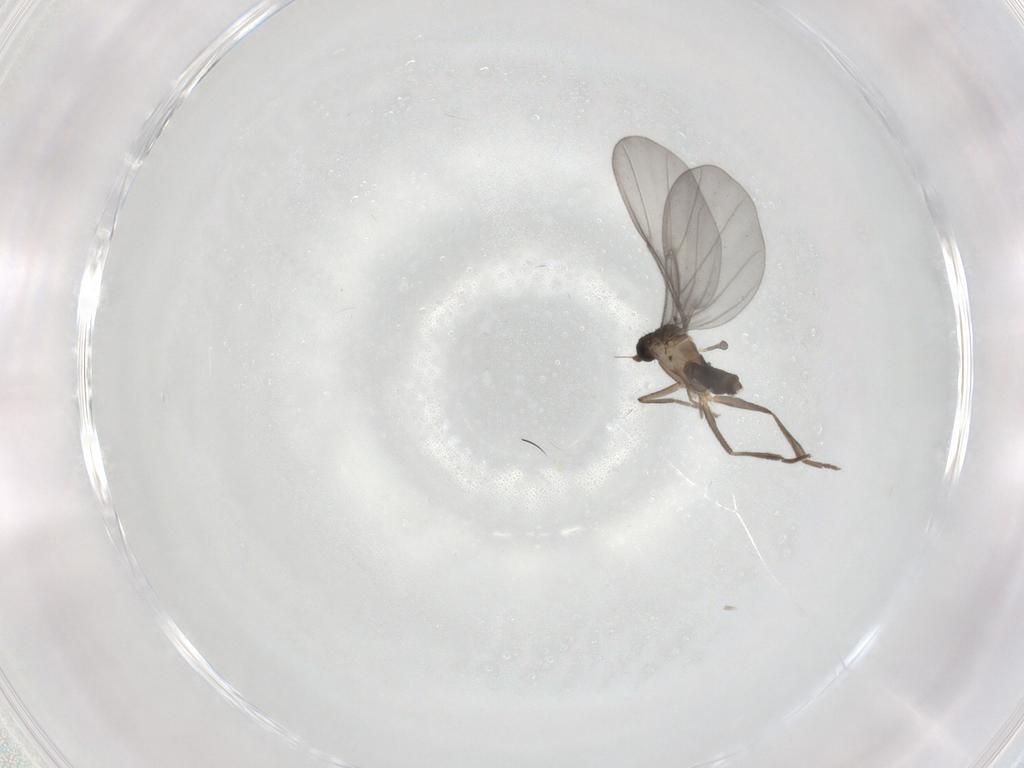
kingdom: Animalia
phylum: Arthropoda
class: Insecta
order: Diptera
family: Phoridae
